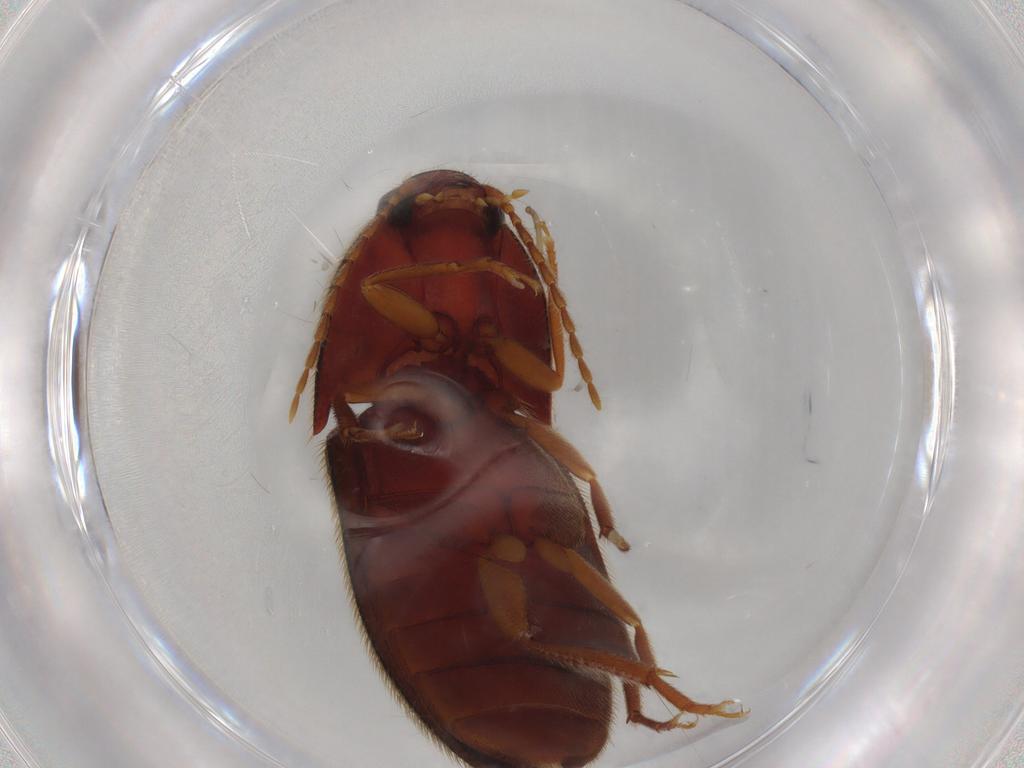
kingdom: Animalia
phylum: Arthropoda
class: Insecta
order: Coleoptera
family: Elateridae
